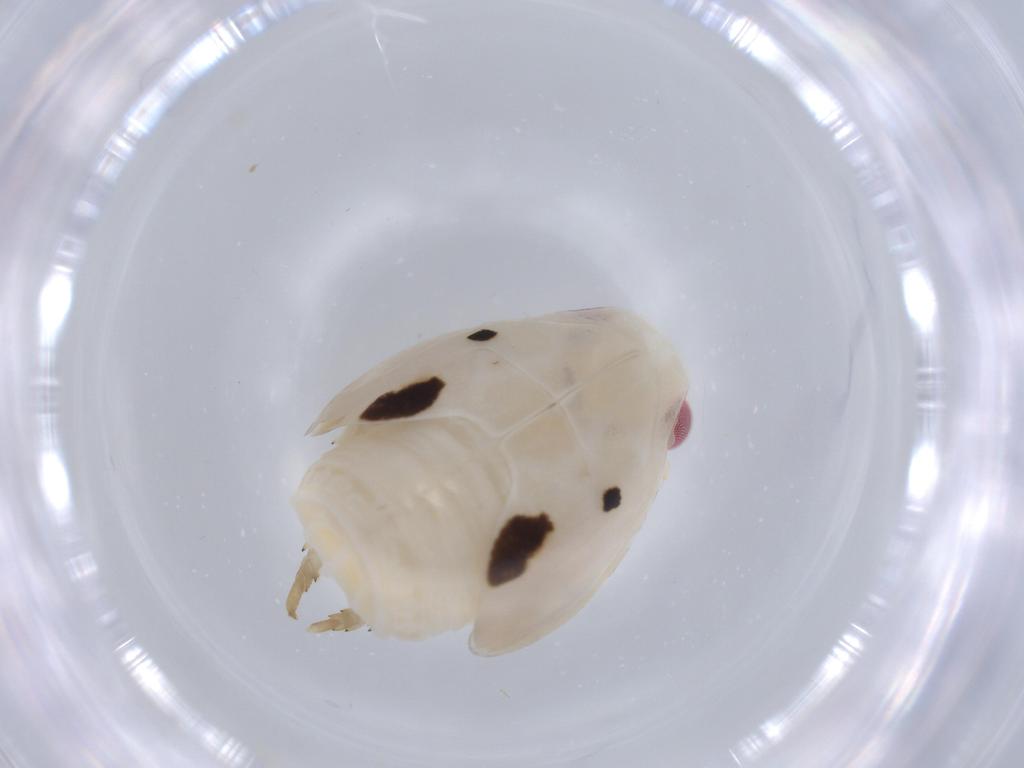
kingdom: Animalia
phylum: Arthropoda
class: Insecta
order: Hemiptera
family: Flatidae
